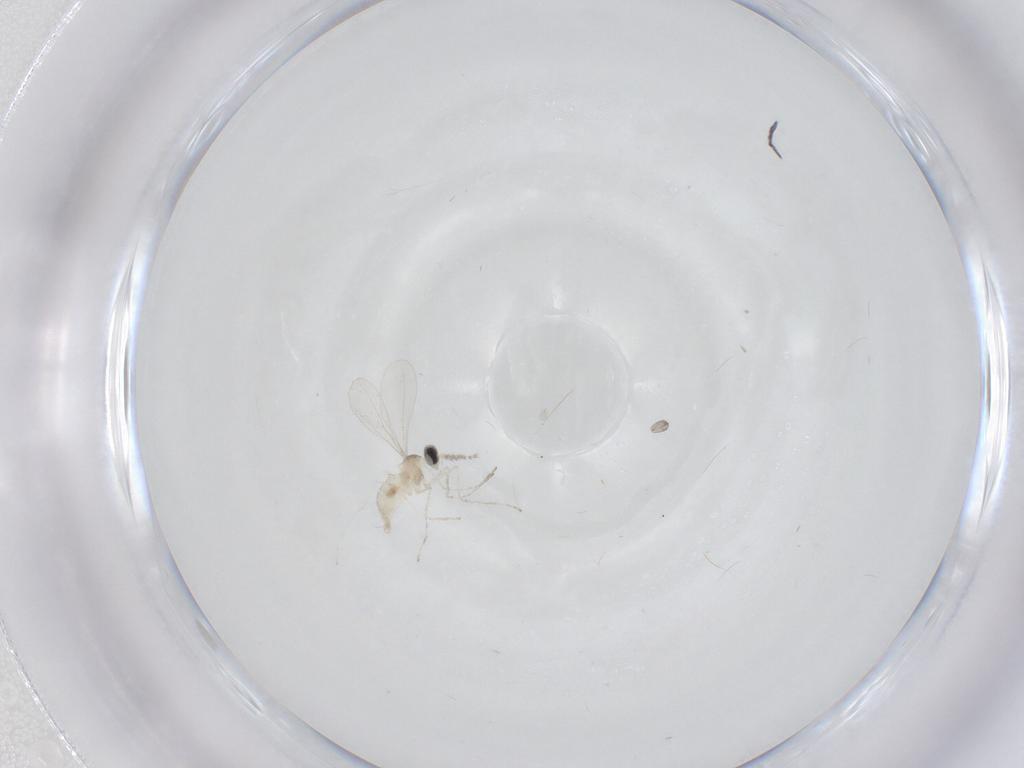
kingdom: Animalia
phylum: Arthropoda
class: Insecta
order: Diptera
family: Cecidomyiidae
